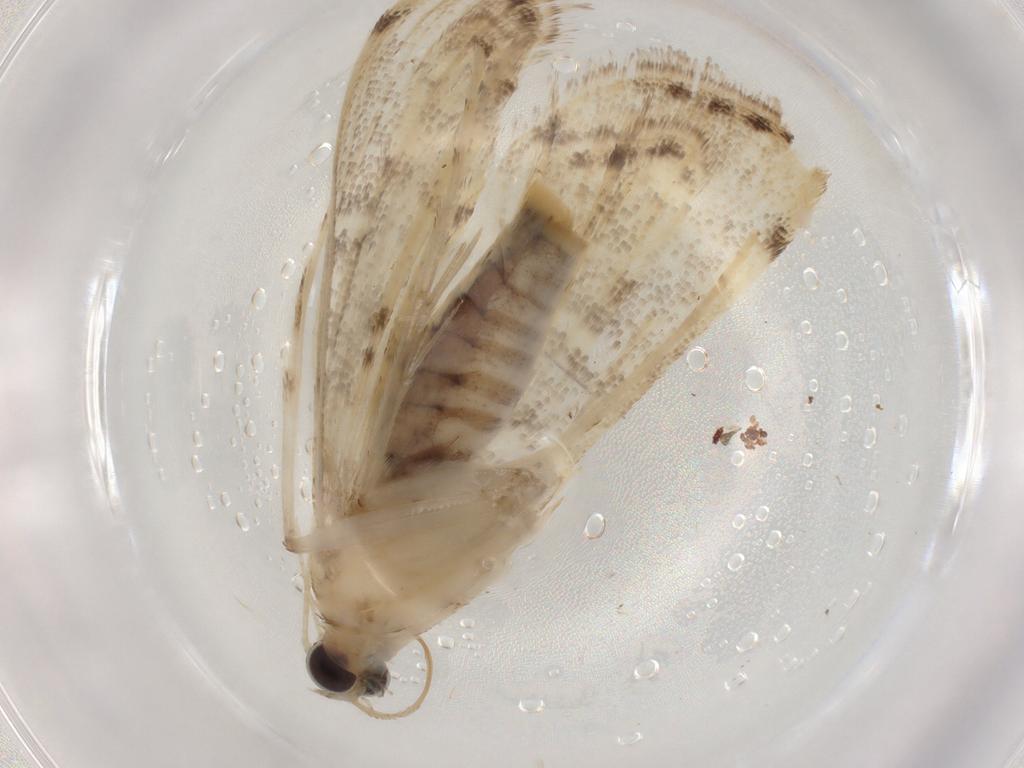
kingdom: Animalia
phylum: Arthropoda
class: Insecta
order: Lepidoptera
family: Crambidae
